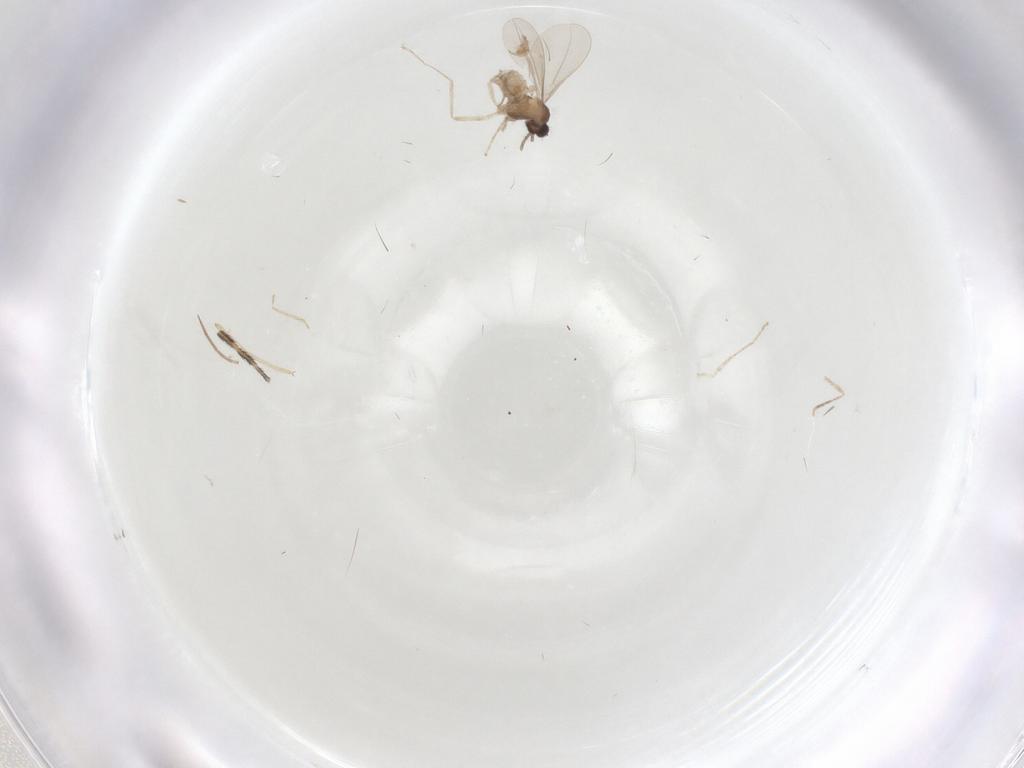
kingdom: Animalia
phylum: Arthropoda
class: Insecta
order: Diptera
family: Cecidomyiidae
